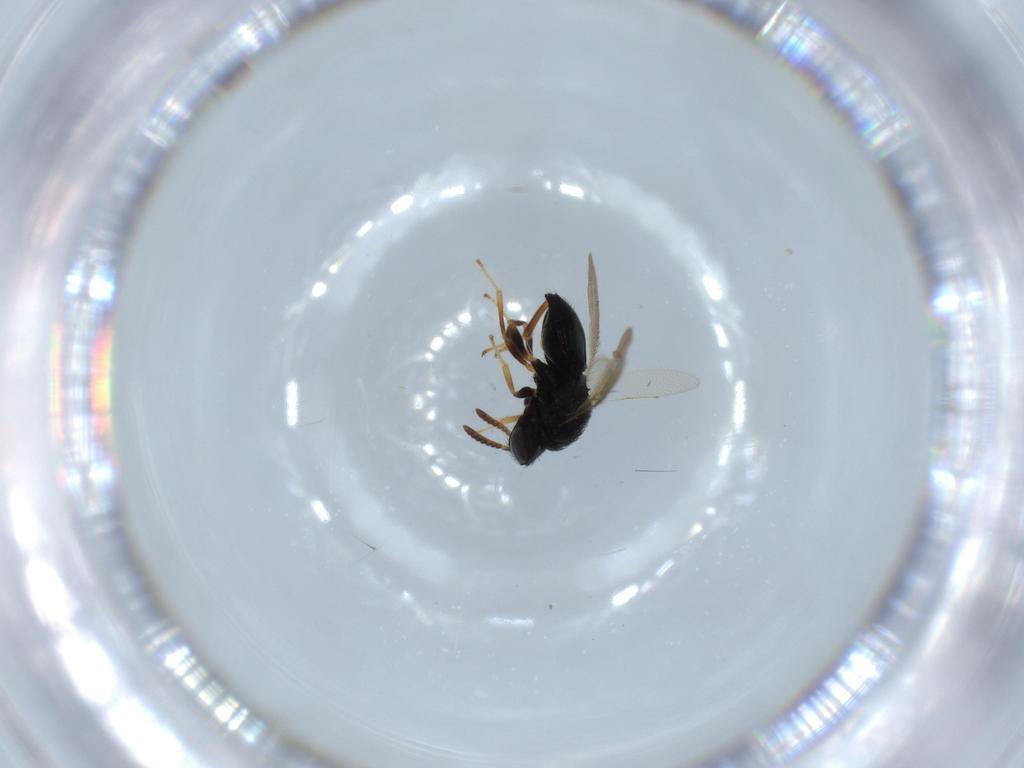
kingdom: Animalia
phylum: Arthropoda
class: Insecta
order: Hymenoptera
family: Pteromalidae
